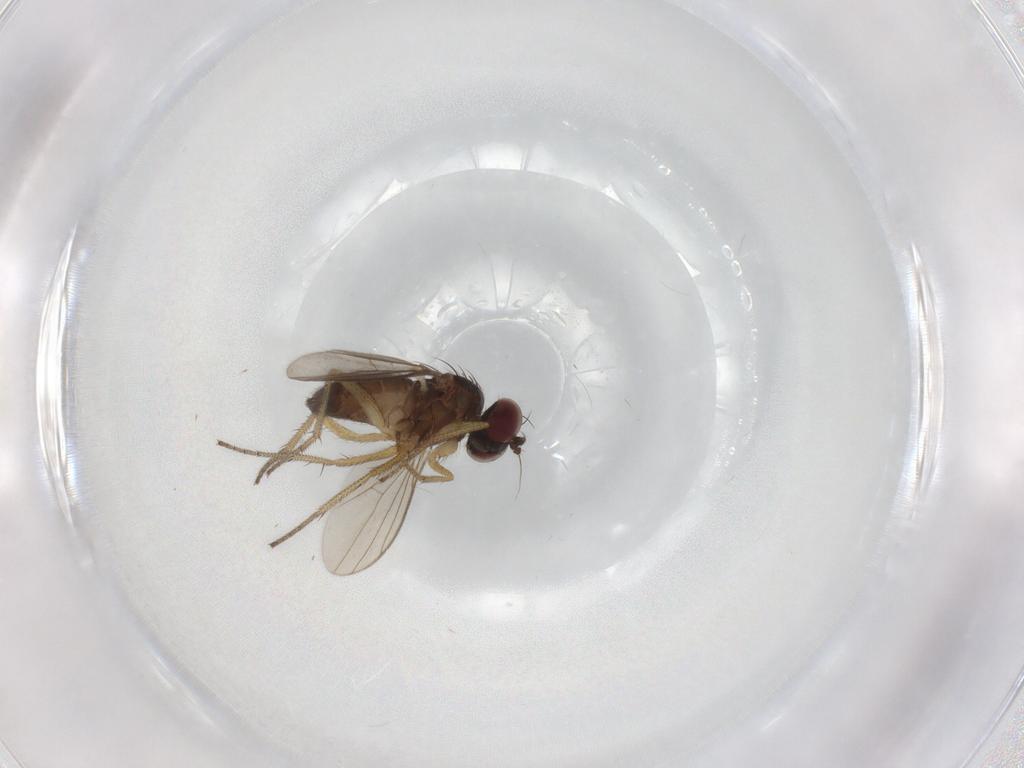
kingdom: Animalia
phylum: Arthropoda
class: Insecta
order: Diptera
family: Dolichopodidae
